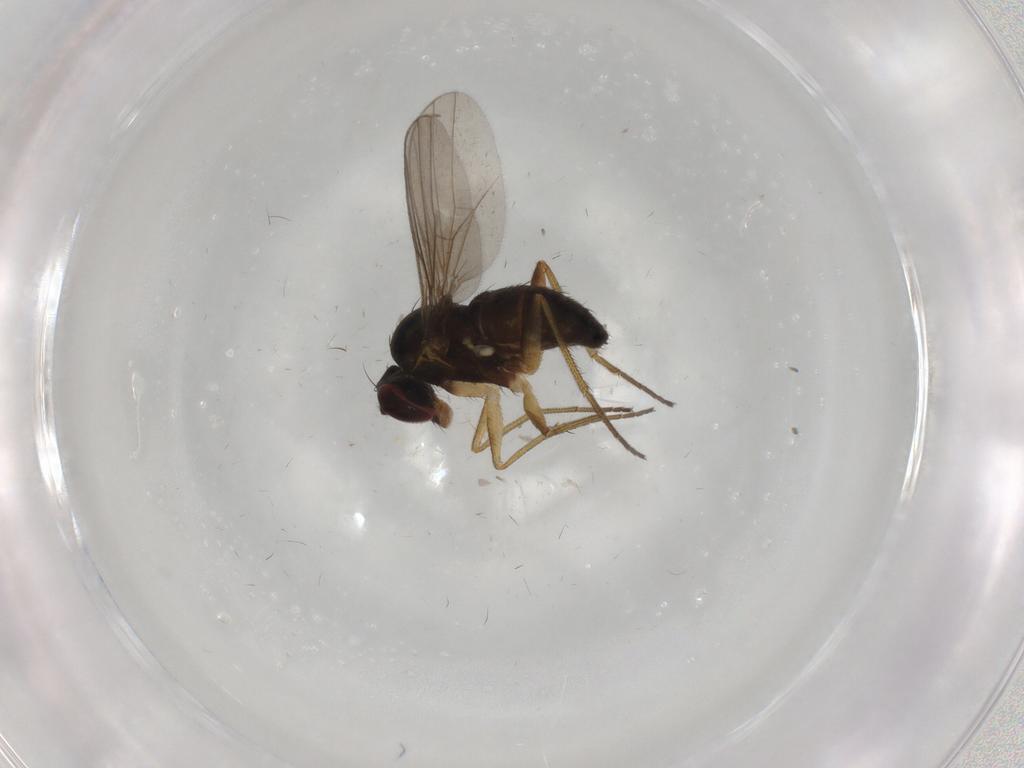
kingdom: Animalia
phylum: Arthropoda
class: Insecta
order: Diptera
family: Dolichopodidae
